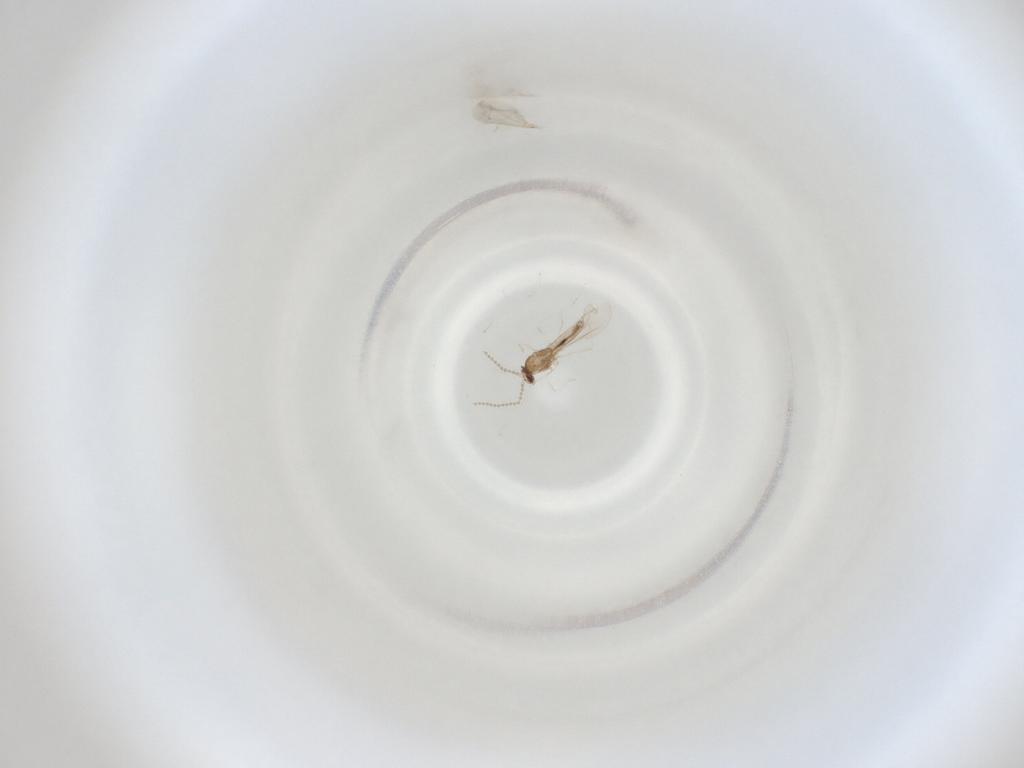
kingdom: Animalia
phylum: Arthropoda
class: Insecta
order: Diptera
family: Cecidomyiidae
